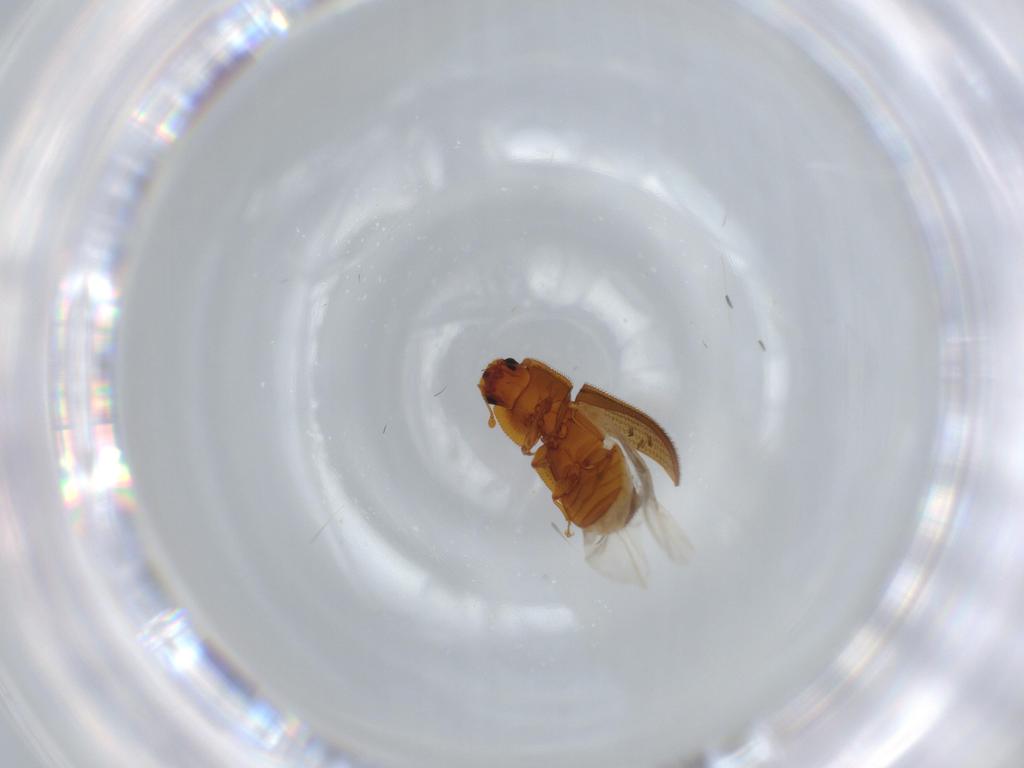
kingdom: Animalia
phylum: Arthropoda
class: Insecta
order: Coleoptera
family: Zopheridae
